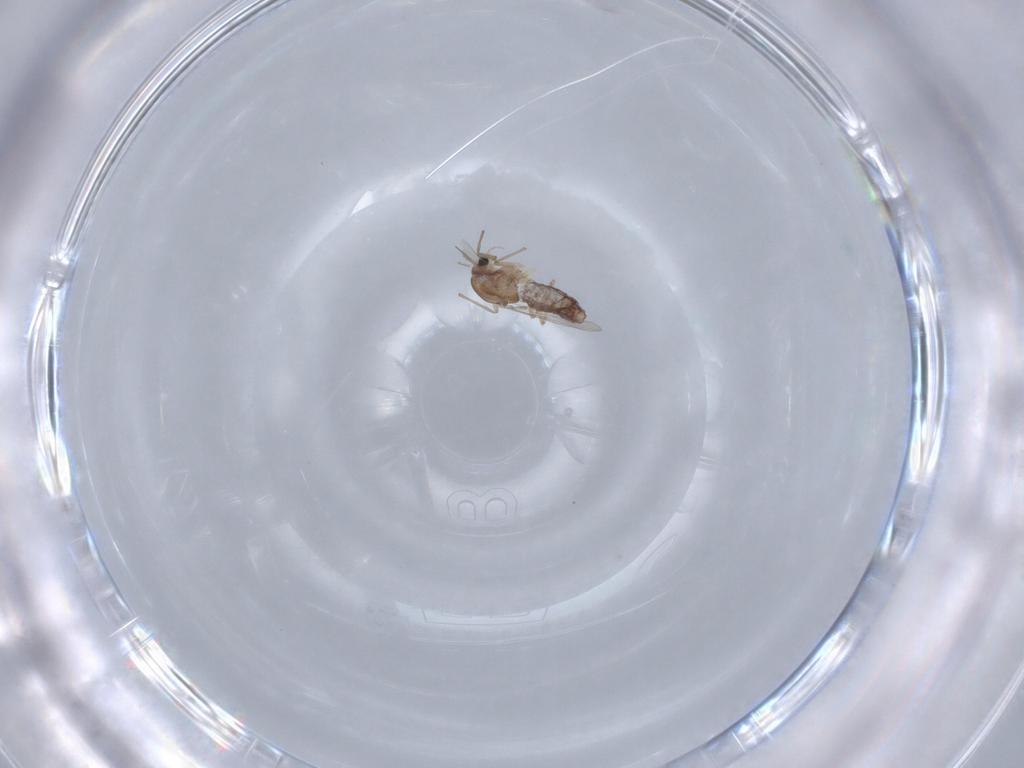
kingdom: Animalia
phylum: Arthropoda
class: Insecta
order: Diptera
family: Chironomidae
